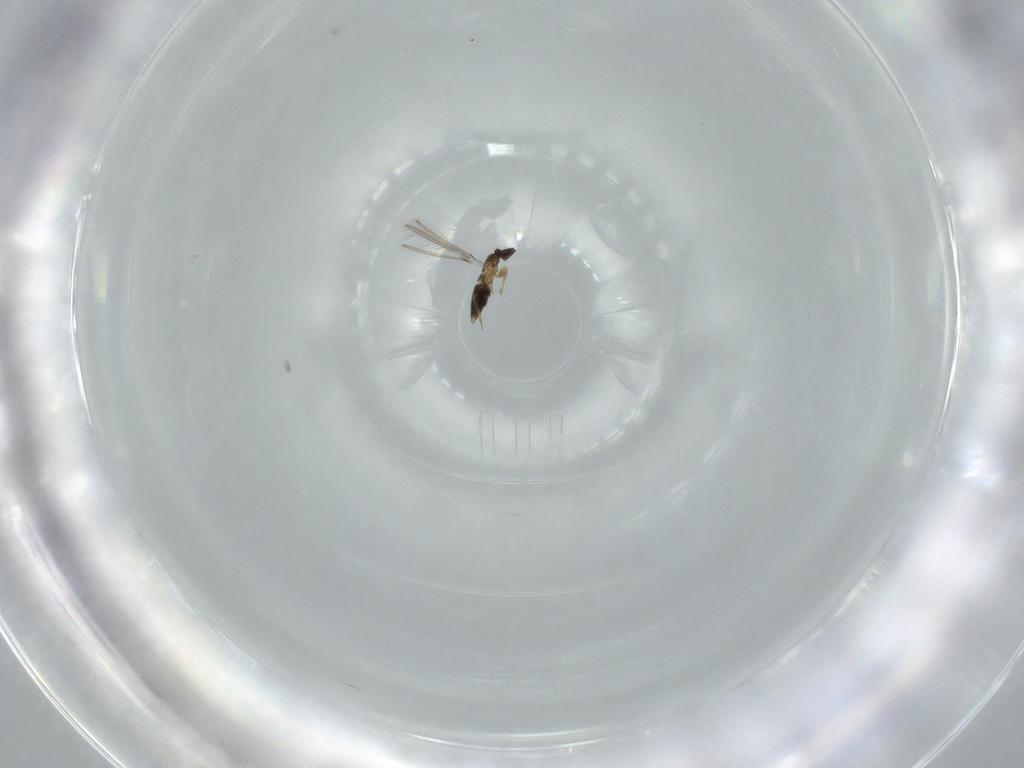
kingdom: Animalia
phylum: Arthropoda
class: Insecta
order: Hymenoptera
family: Mymaridae
